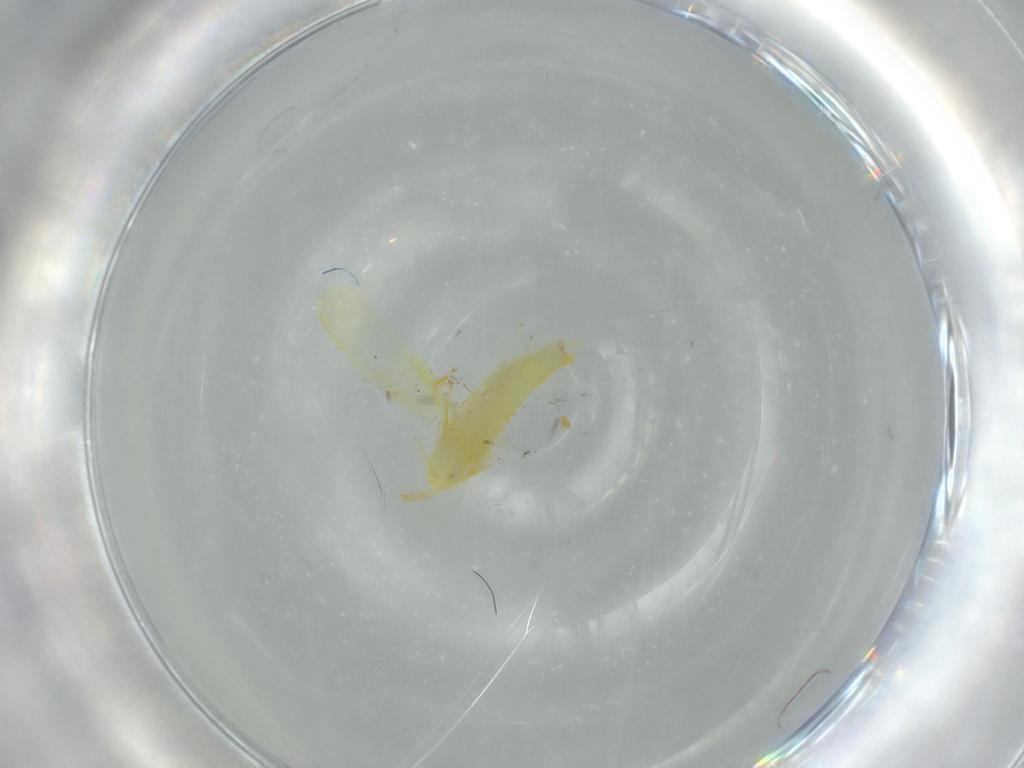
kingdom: Animalia
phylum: Arthropoda
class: Insecta
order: Hemiptera
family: Cicadellidae
